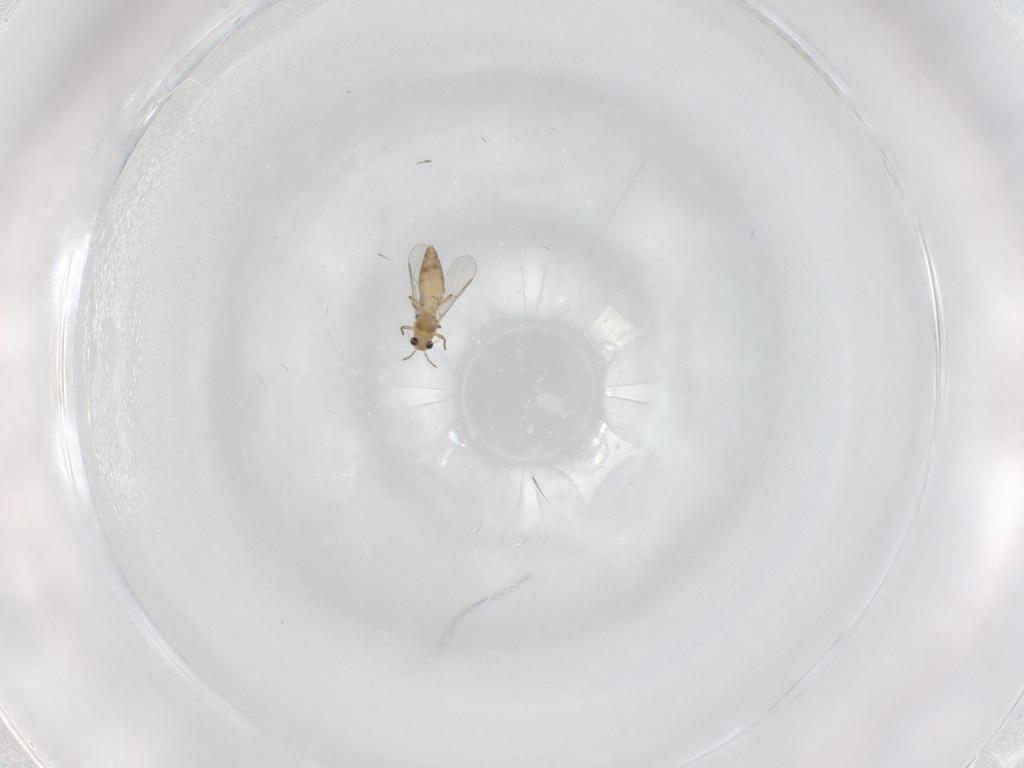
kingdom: Animalia
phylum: Arthropoda
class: Insecta
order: Diptera
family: Chironomidae
